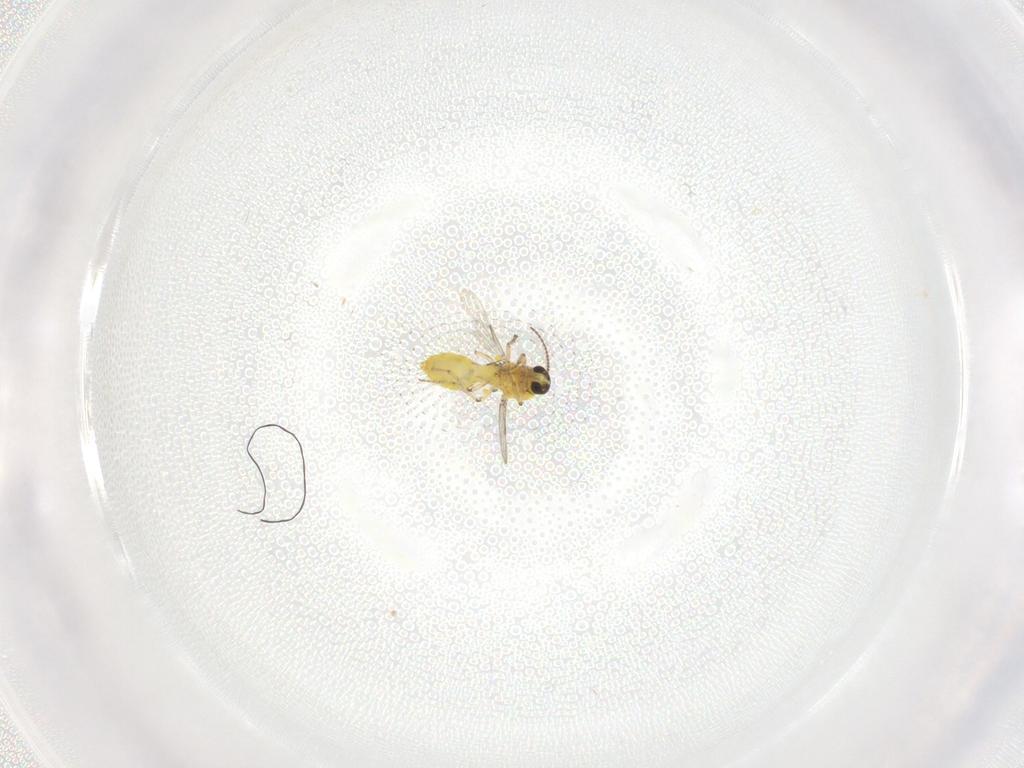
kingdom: Animalia
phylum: Arthropoda
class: Insecta
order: Diptera
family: Ceratopogonidae
